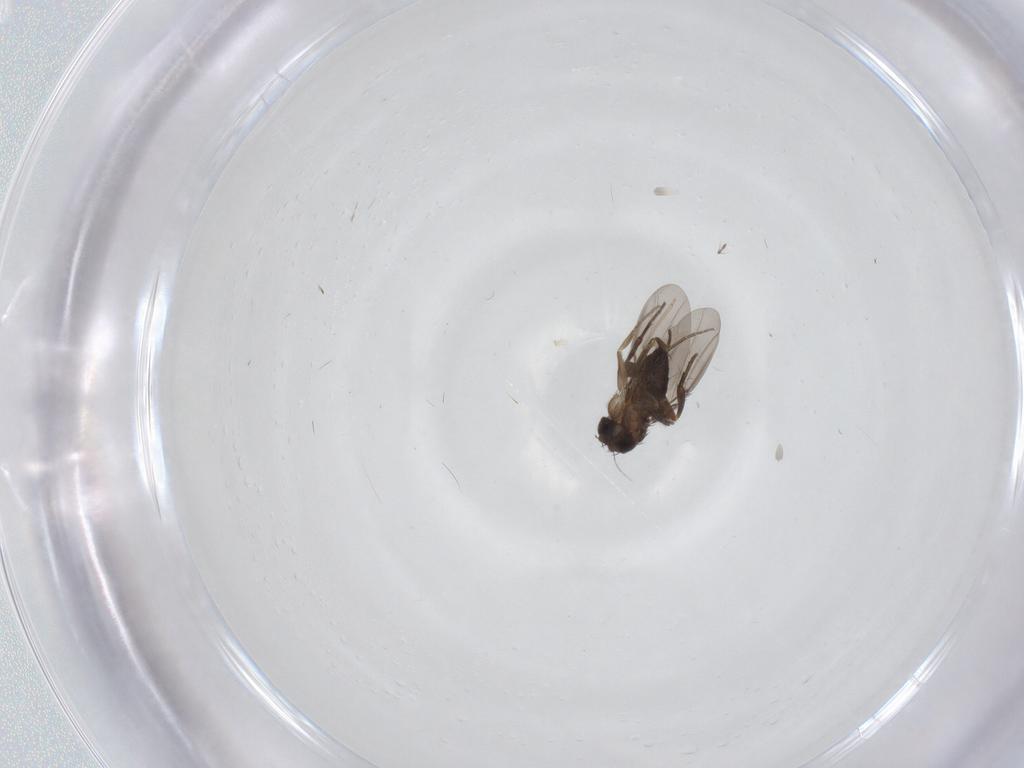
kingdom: Animalia
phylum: Arthropoda
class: Insecta
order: Diptera
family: Phoridae
